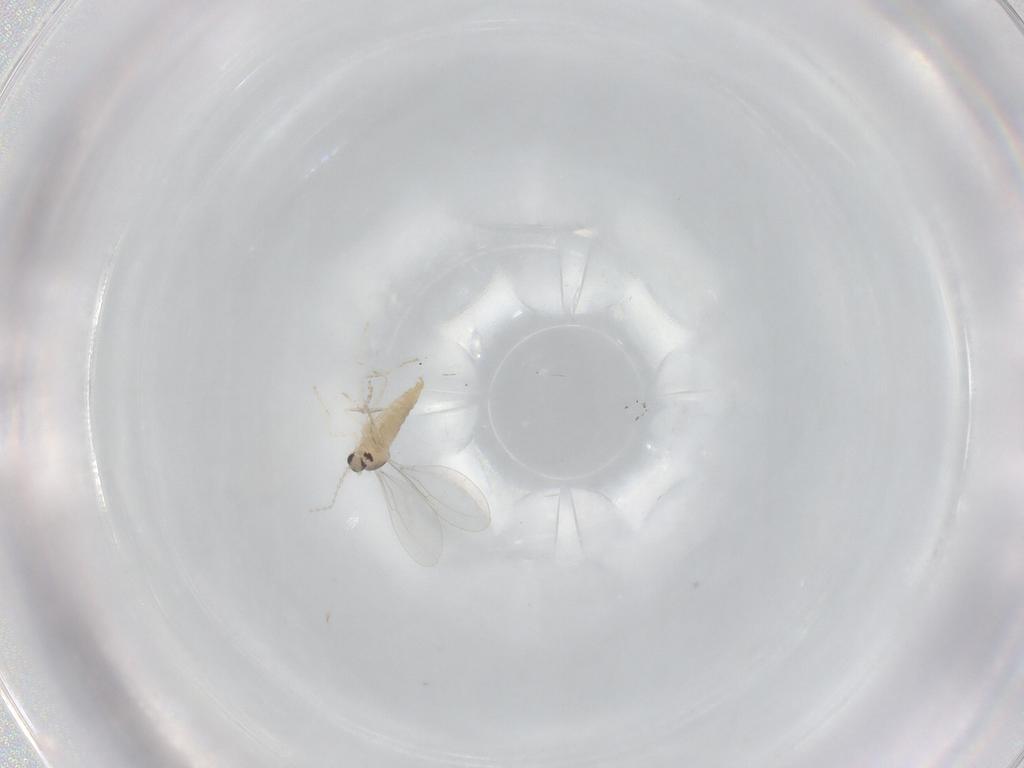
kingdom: Animalia
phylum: Arthropoda
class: Insecta
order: Diptera
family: Cecidomyiidae
